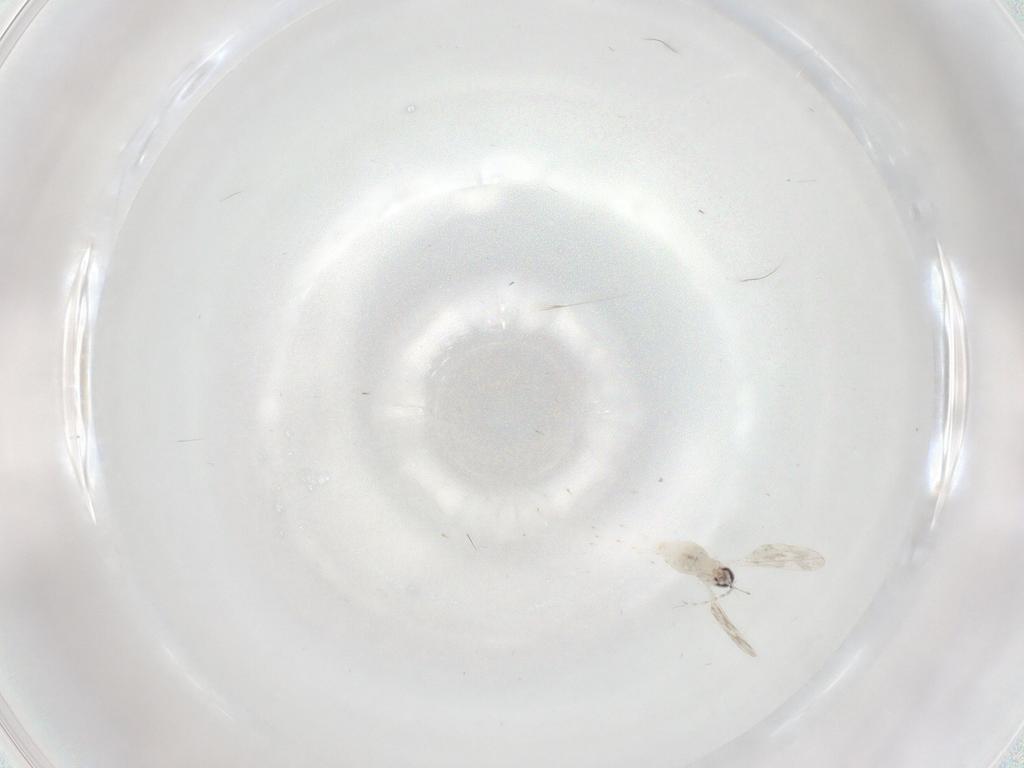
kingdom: Animalia
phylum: Arthropoda
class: Insecta
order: Diptera
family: Cecidomyiidae
